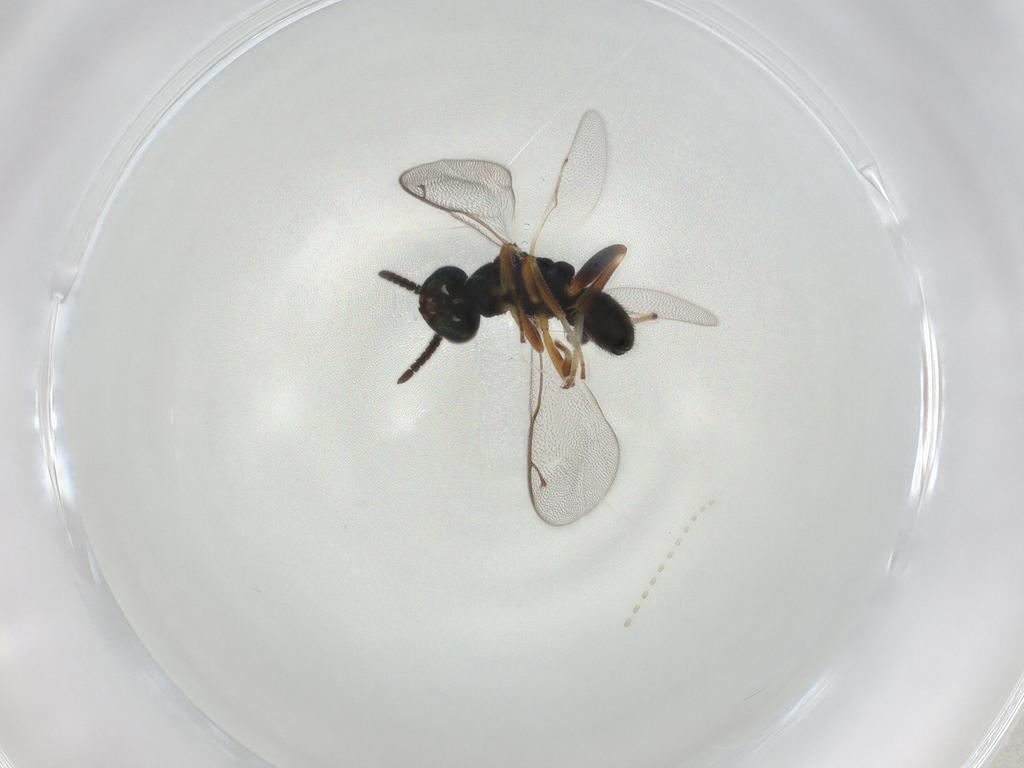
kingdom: Animalia
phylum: Arthropoda
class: Insecta
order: Hymenoptera
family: Cleonyminae
